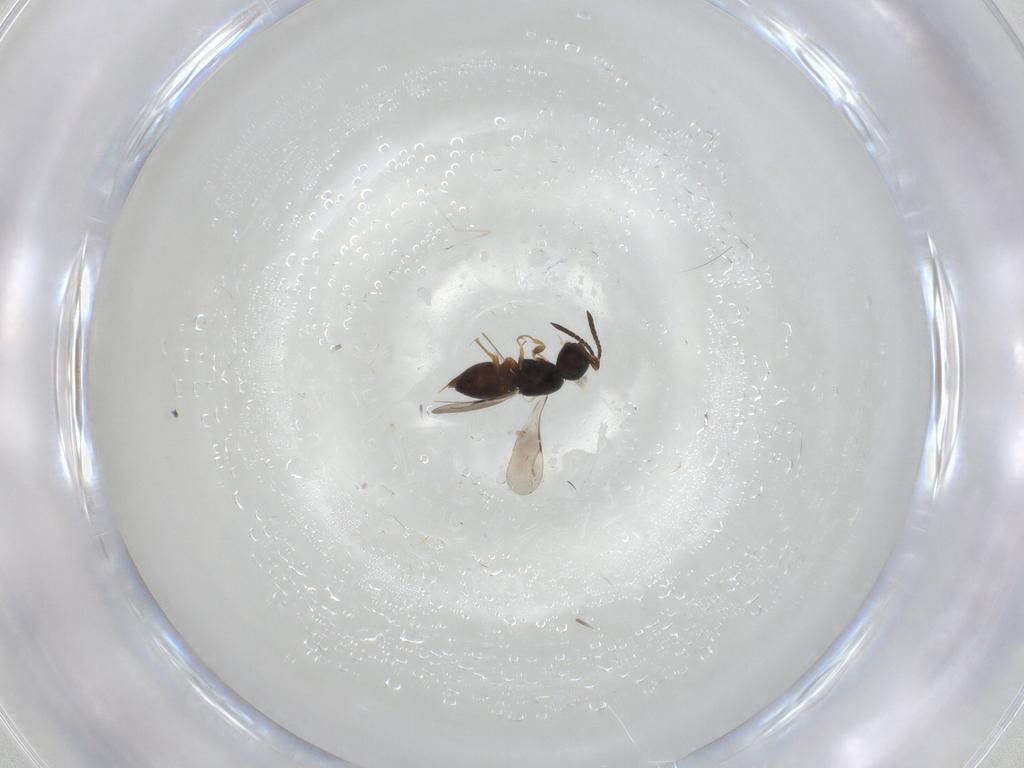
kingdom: Animalia
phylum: Arthropoda
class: Insecta
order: Hymenoptera
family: Ceraphronidae
